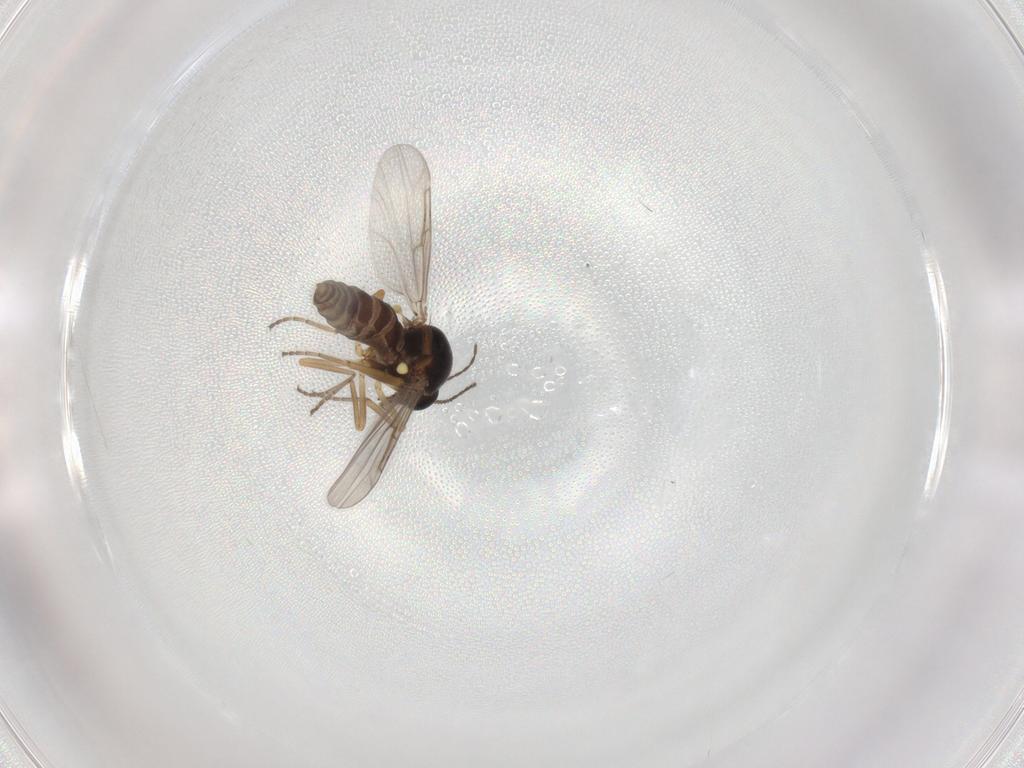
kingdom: Animalia
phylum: Arthropoda
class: Insecta
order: Diptera
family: Ceratopogonidae
